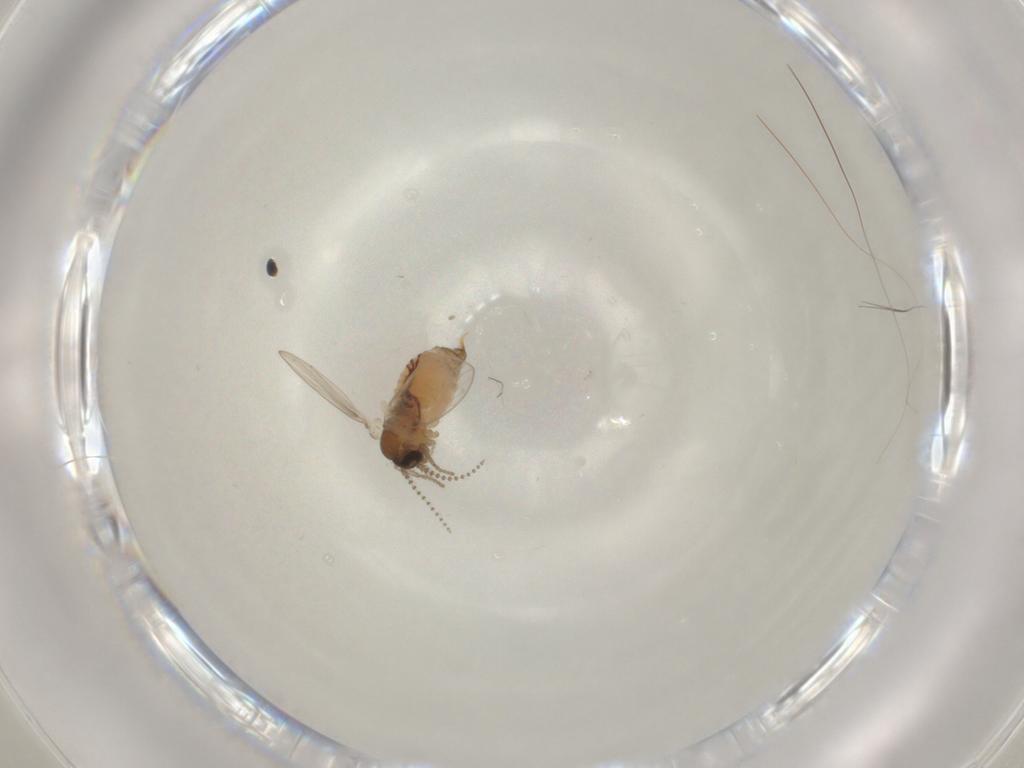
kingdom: Animalia
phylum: Arthropoda
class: Insecta
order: Diptera
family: Psychodidae
